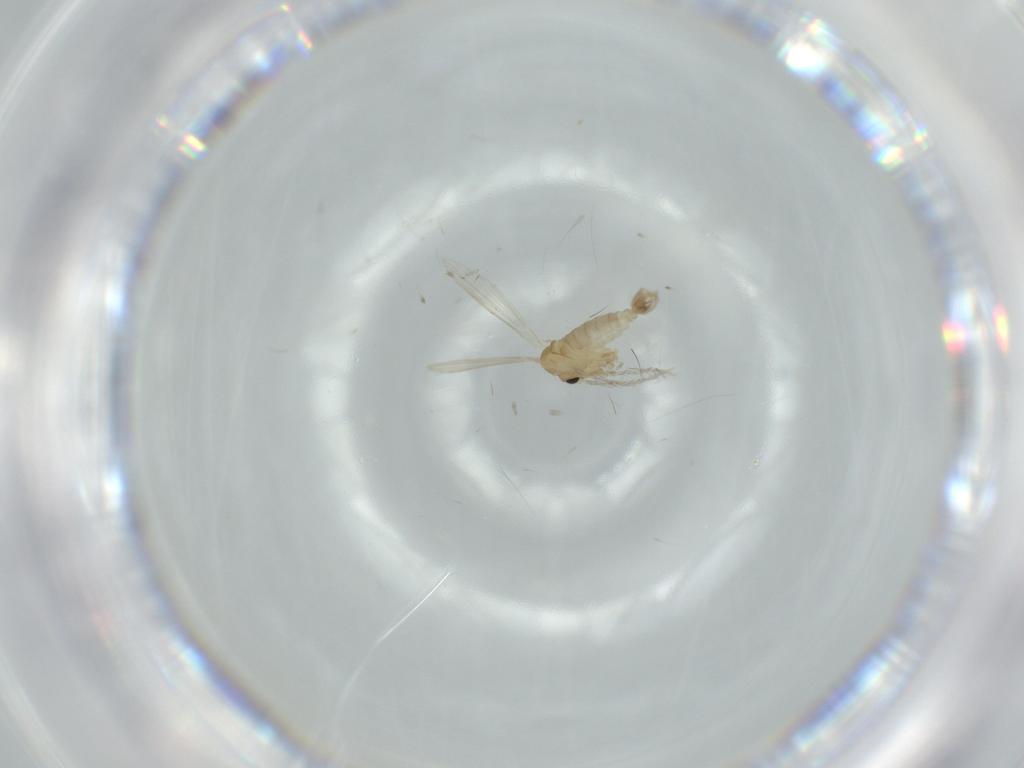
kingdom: Animalia
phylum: Arthropoda
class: Insecta
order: Diptera
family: Psychodidae
